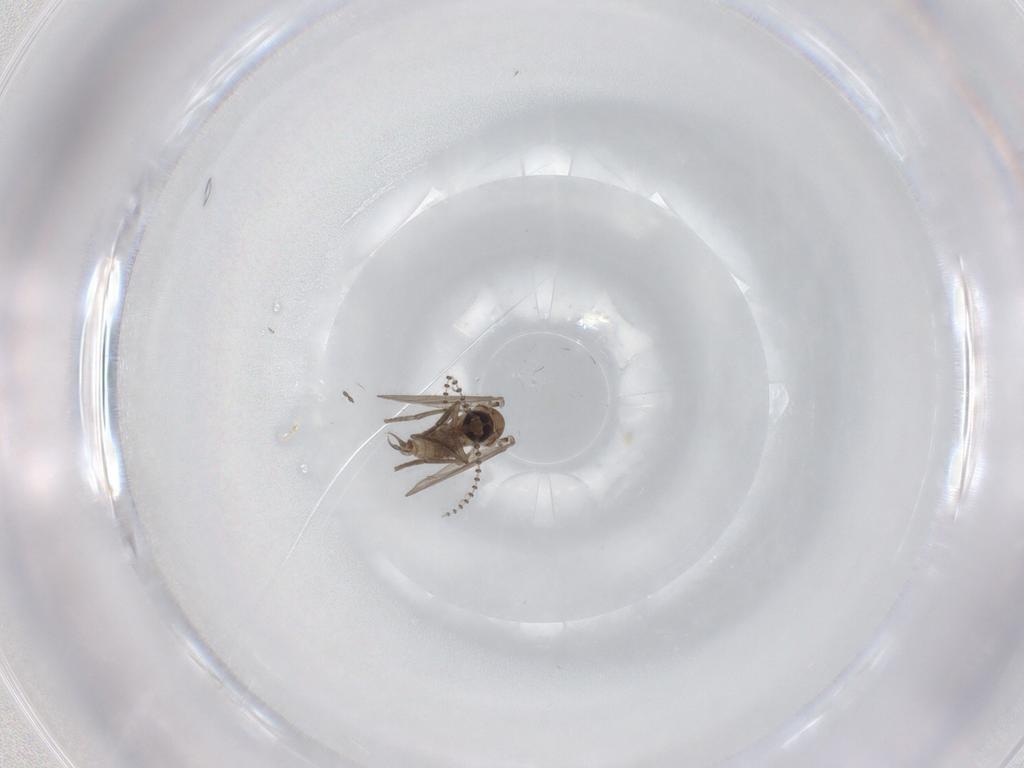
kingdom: Animalia
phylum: Arthropoda
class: Insecta
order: Diptera
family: Psychodidae
